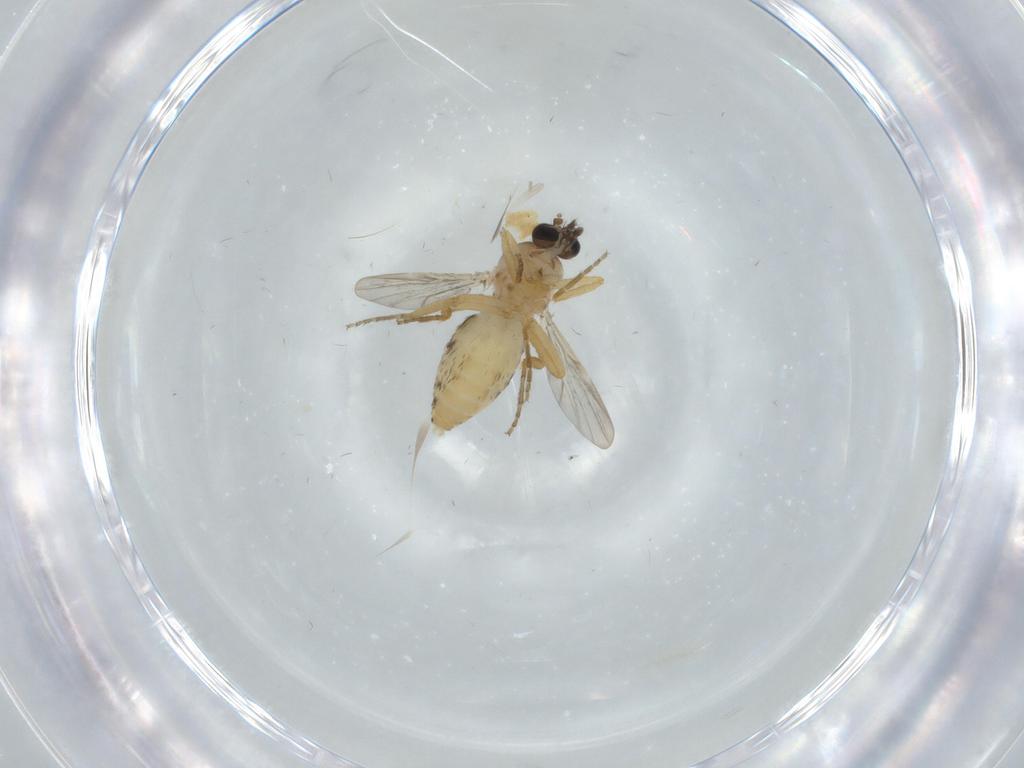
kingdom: Animalia
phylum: Arthropoda
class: Insecta
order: Diptera
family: Ceratopogonidae
